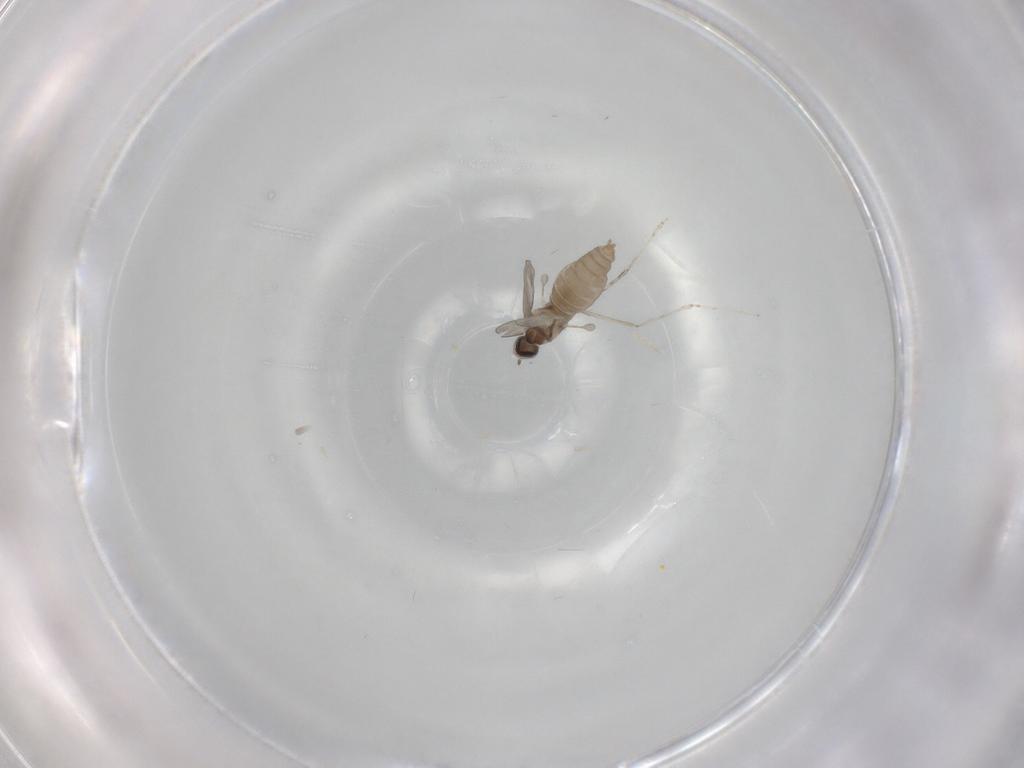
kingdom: Animalia
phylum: Arthropoda
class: Insecta
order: Diptera
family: Cecidomyiidae
